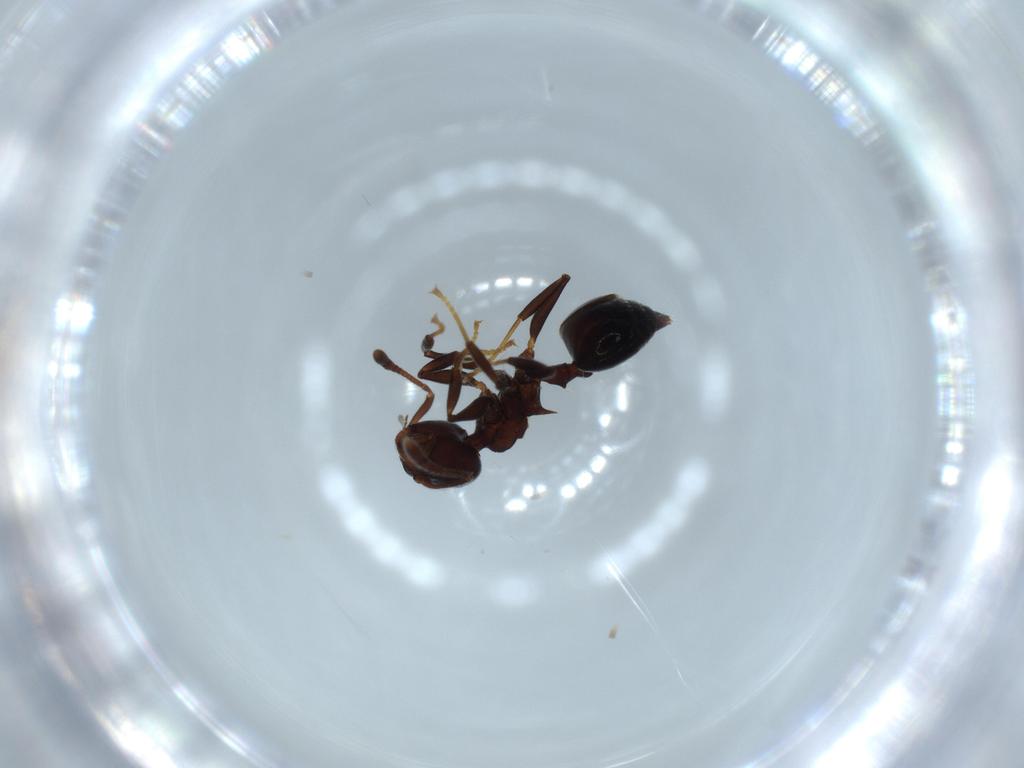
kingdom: Animalia
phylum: Arthropoda
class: Insecta
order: Hymenoptera
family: Formicidae
